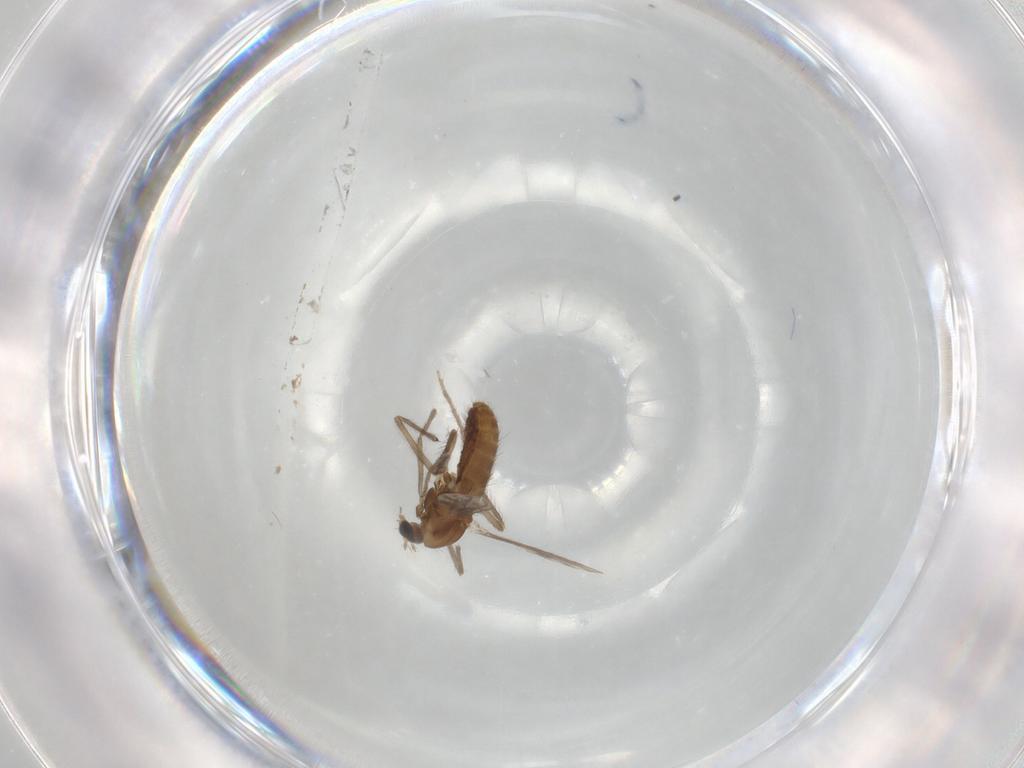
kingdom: Animalia
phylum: Arthropoda
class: Insecta
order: Diptera
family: Chironomidae
